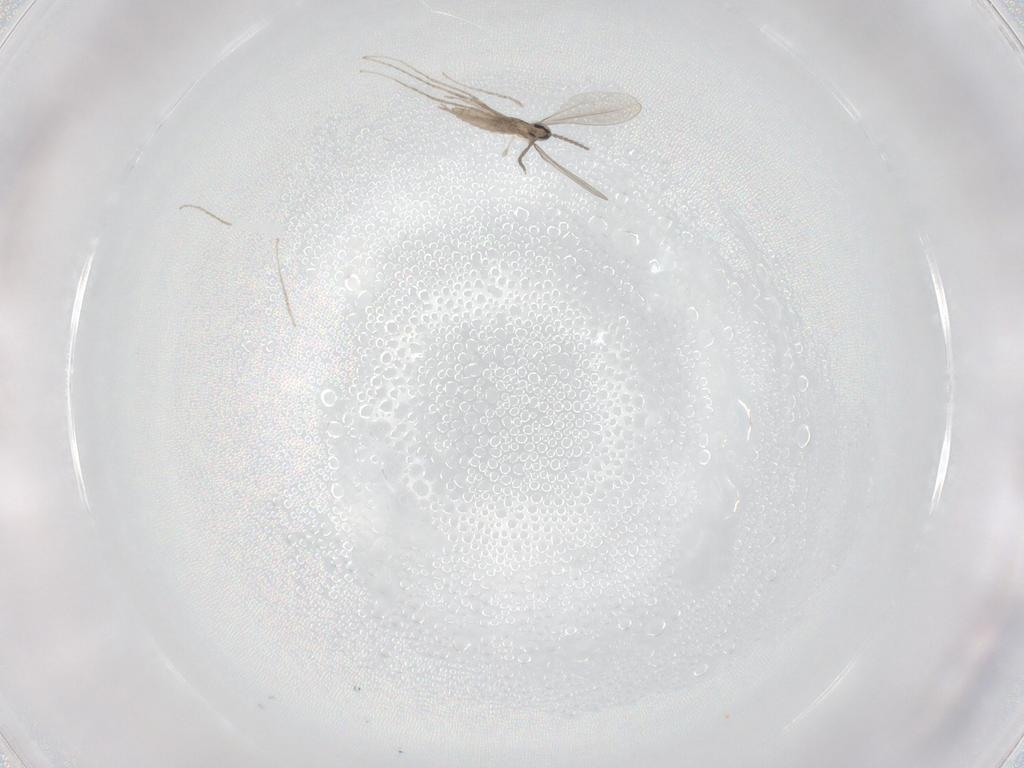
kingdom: Animalia
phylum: Arthropoda
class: Insecta
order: Diptera
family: Cecidomyiidae
